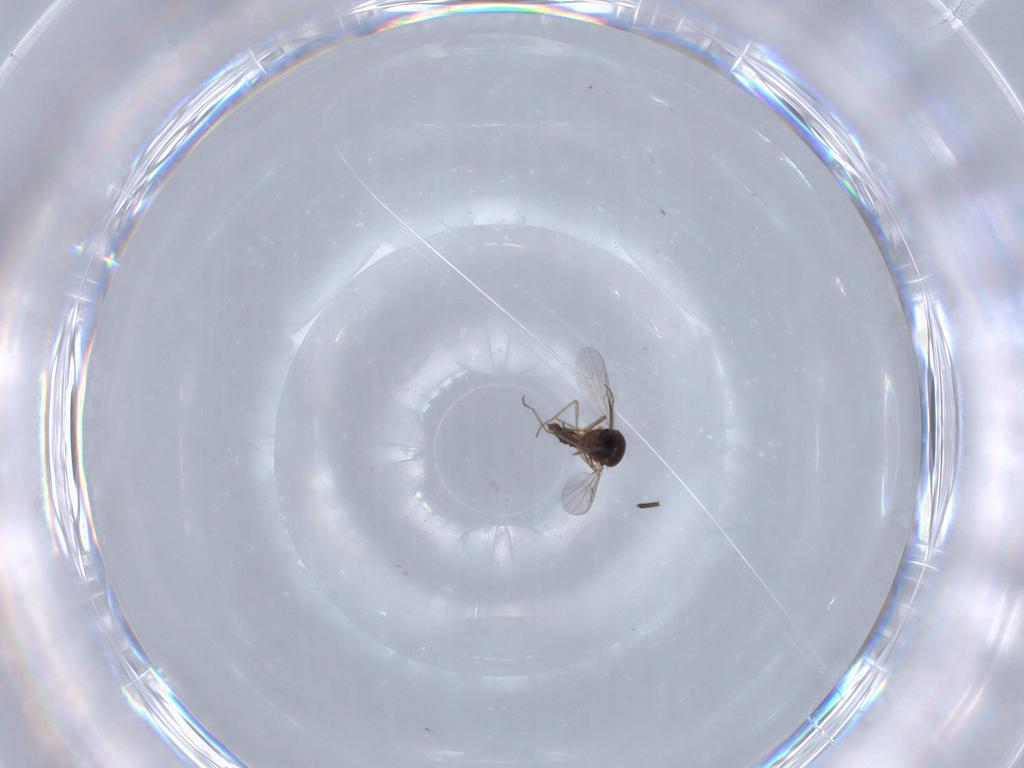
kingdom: Animalia
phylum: Arthropoda
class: Insecta
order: Diptera
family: Ceratopogonidae
